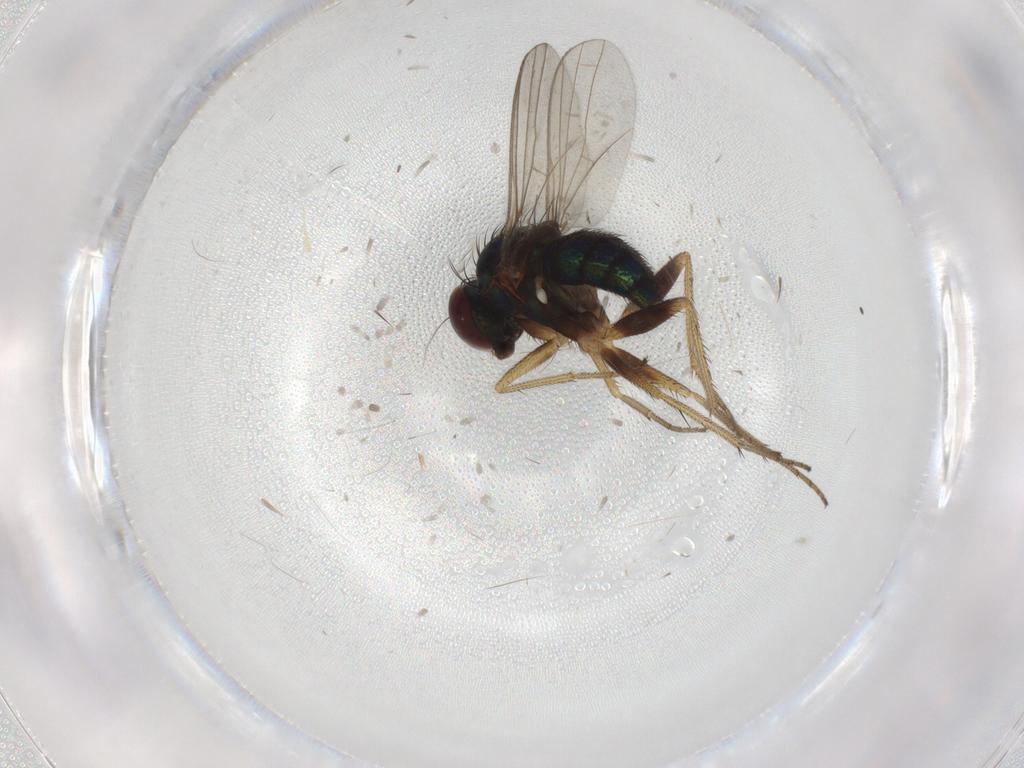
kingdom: Animalia
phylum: Arthropoda
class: Insecta
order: Diptera
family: Dolichopodidae
